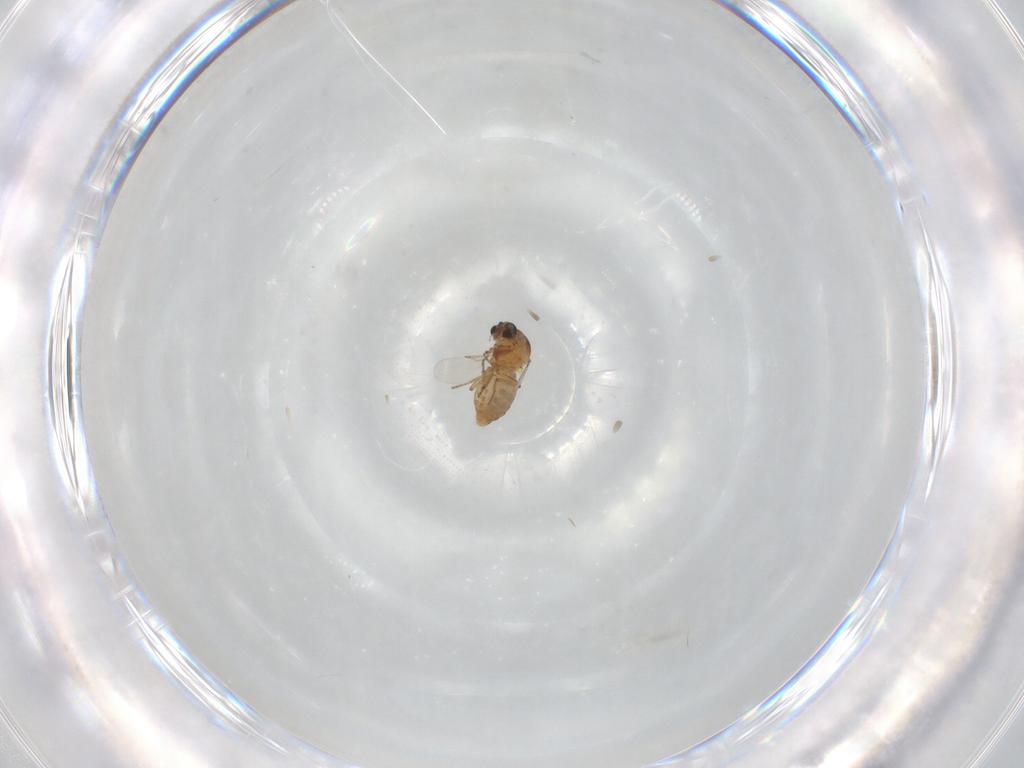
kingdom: Animalia
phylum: Arthropoda
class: Insecta
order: Diptera
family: Ceratopogonidae
